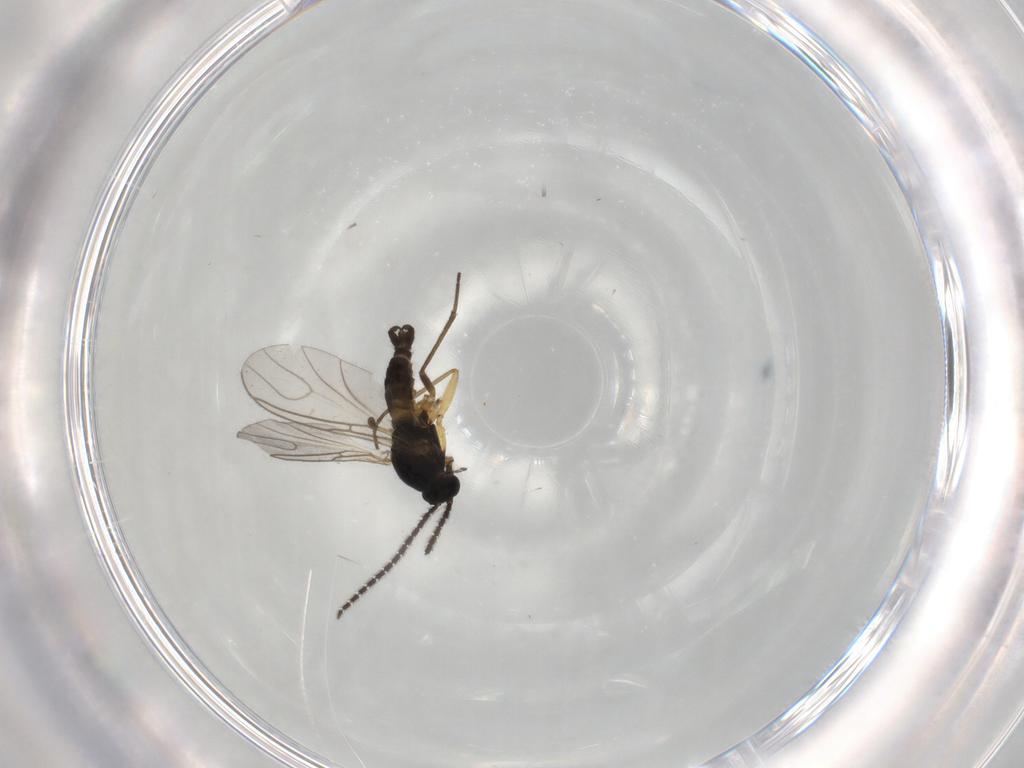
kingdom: Animalia
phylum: Arthropoda
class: Insecta
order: Diptera
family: Sciaridae
